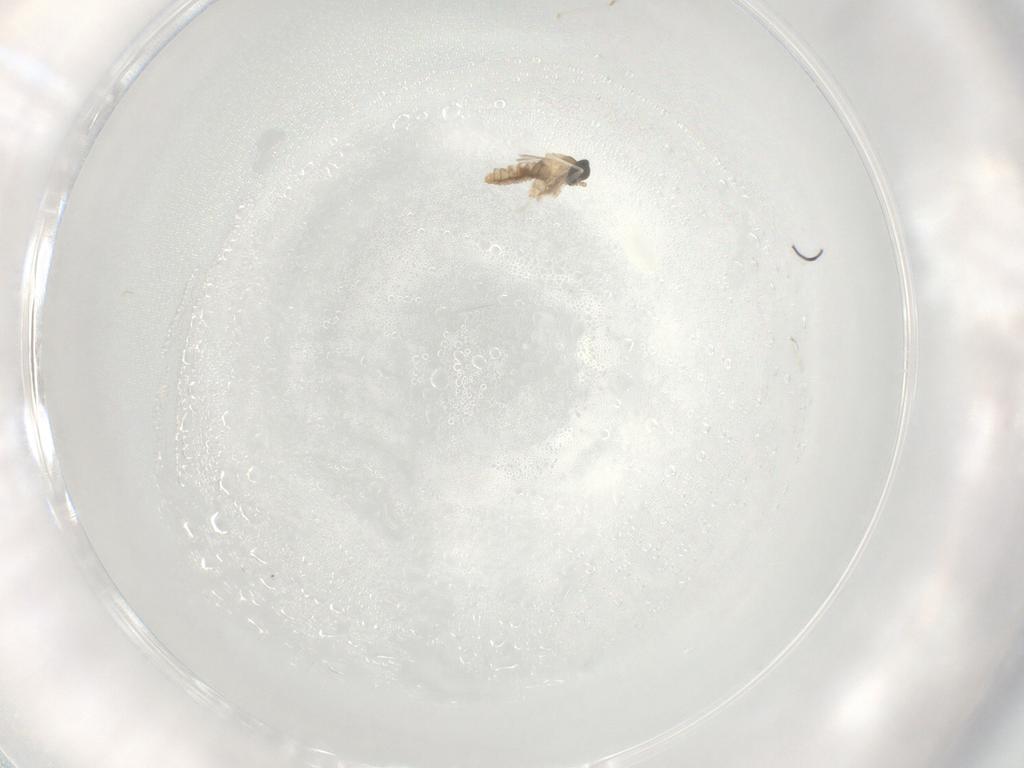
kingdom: Animalia
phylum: Arthropoda
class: Insecta
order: Diptera
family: Cecidomyiidae
